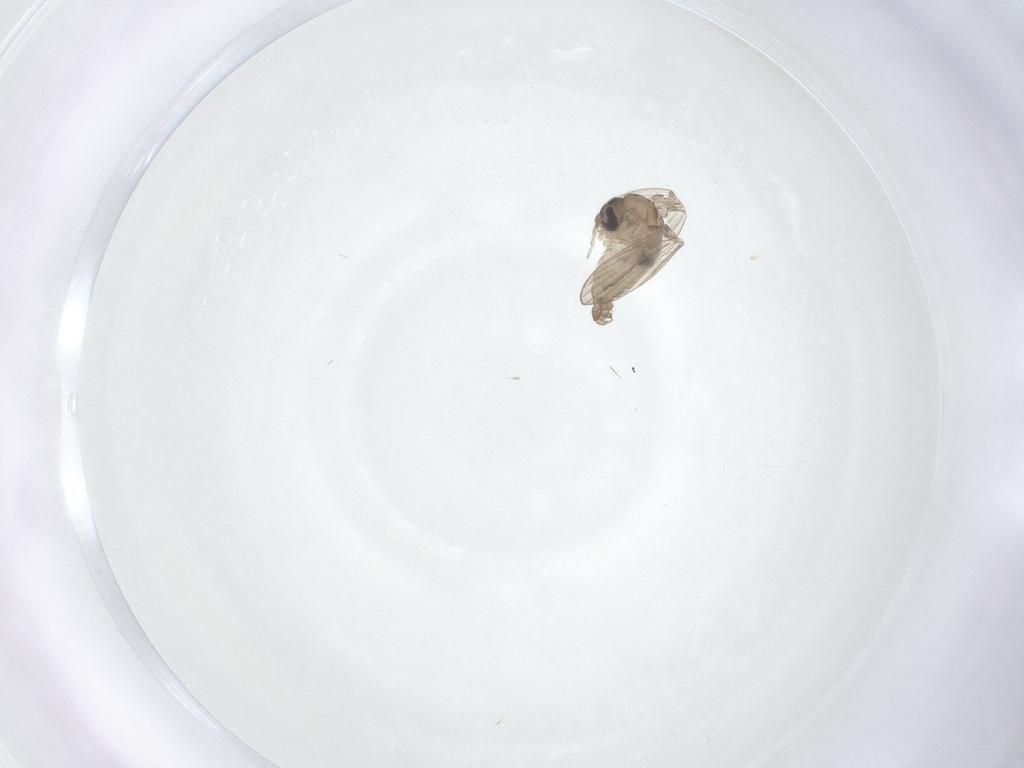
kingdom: Animalia
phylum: Arthropoda
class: Insecta
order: Diptera
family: Psychodidae
